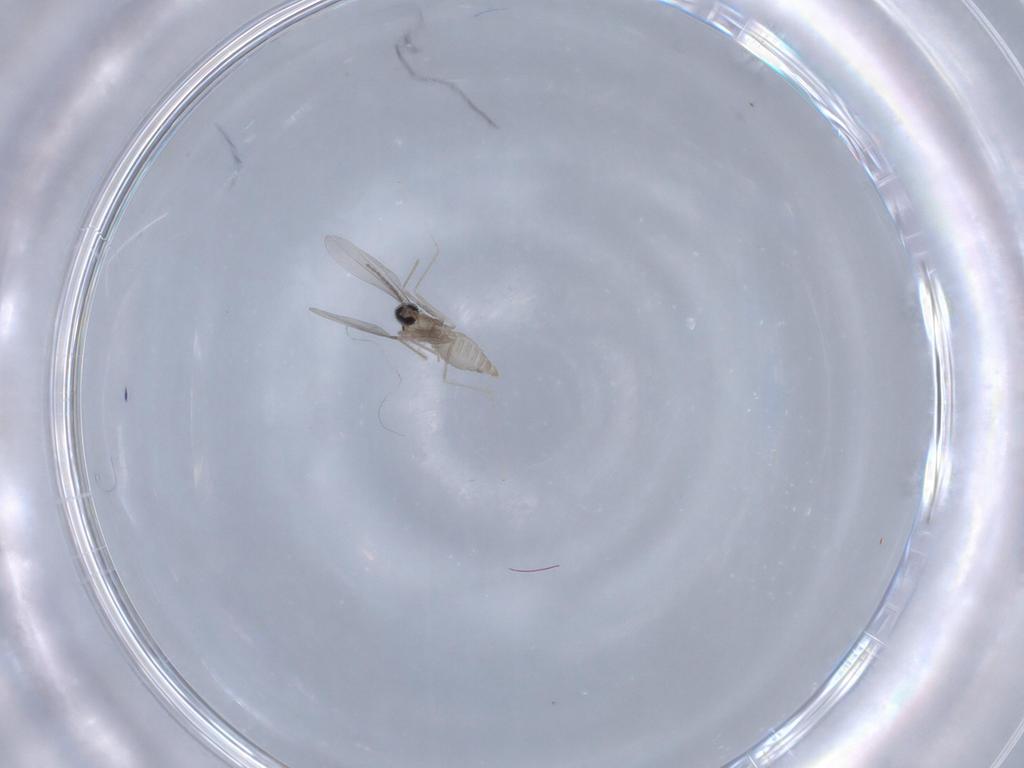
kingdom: Animalia
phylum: Arthropoda
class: Insecta
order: Diptera
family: Cecidomyiidae
